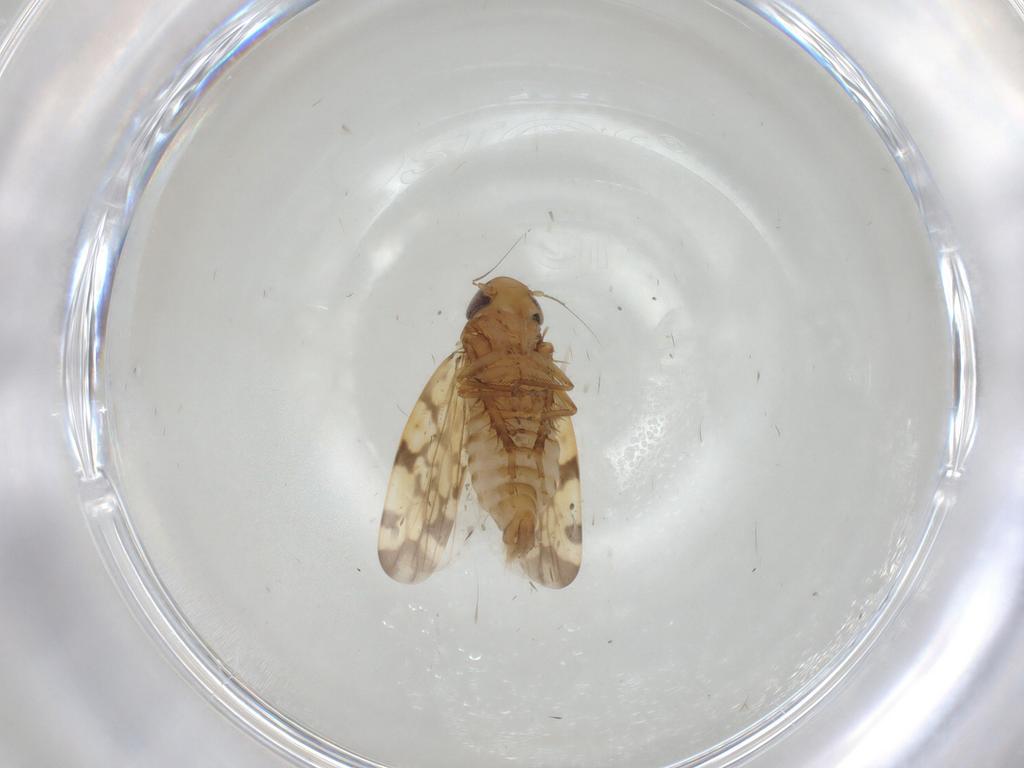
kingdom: Animalia
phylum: Arthropoda
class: Insecta
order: Hemiptera
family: Cicadellidae
